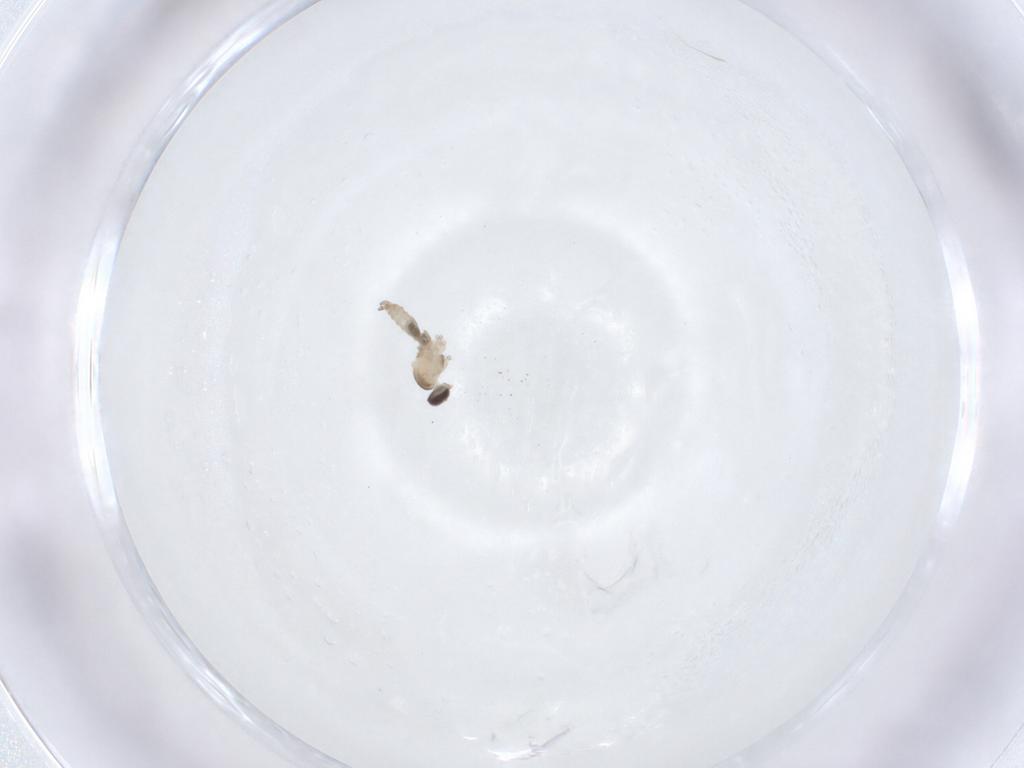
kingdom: Animalia
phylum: Arthropoda
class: Insecta
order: Diptera
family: Cecidomyiidae
